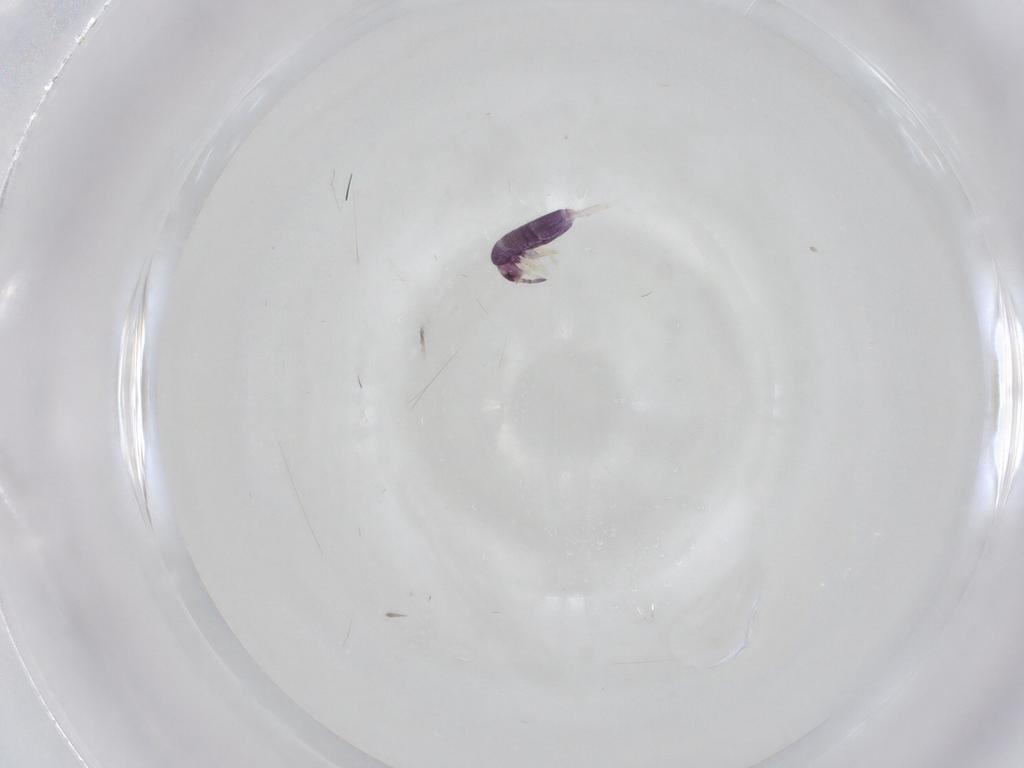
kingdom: Animalia
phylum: Arthropoda
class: Collembola
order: Entomobryomorpha
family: Entomobryidae
